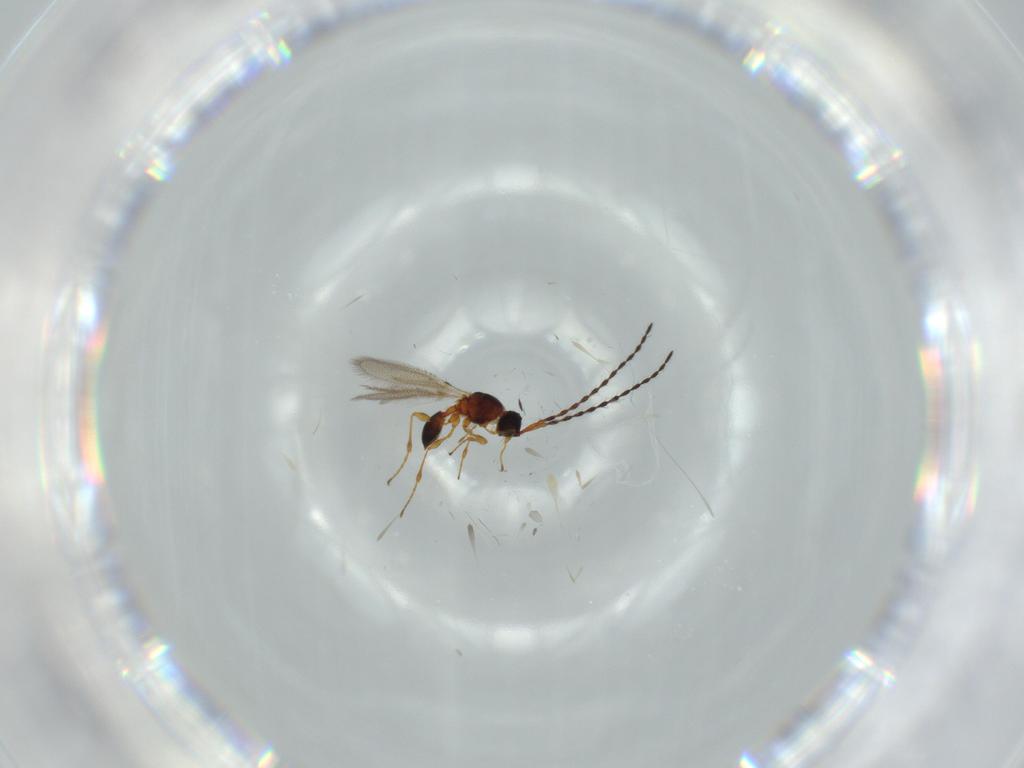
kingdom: Animalia
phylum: Arthropoda
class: Insecta
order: Hymenoptera
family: Diapriidae
